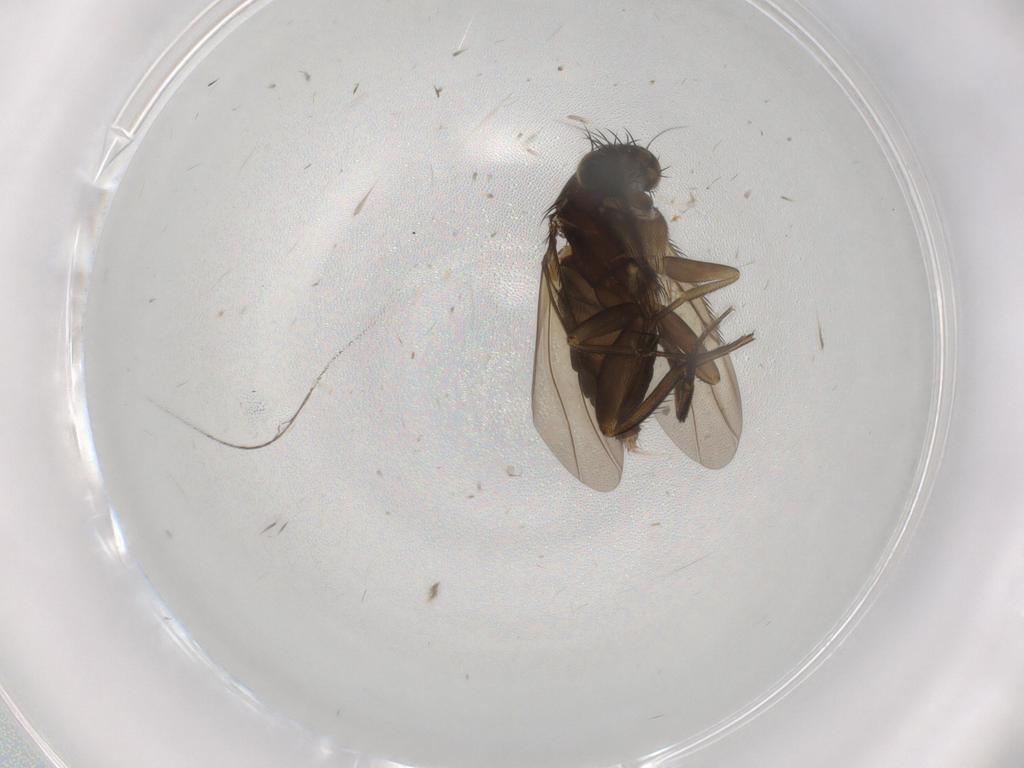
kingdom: Animalia
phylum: Arthropoda
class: Insecta
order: Diptera
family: Phoridae
